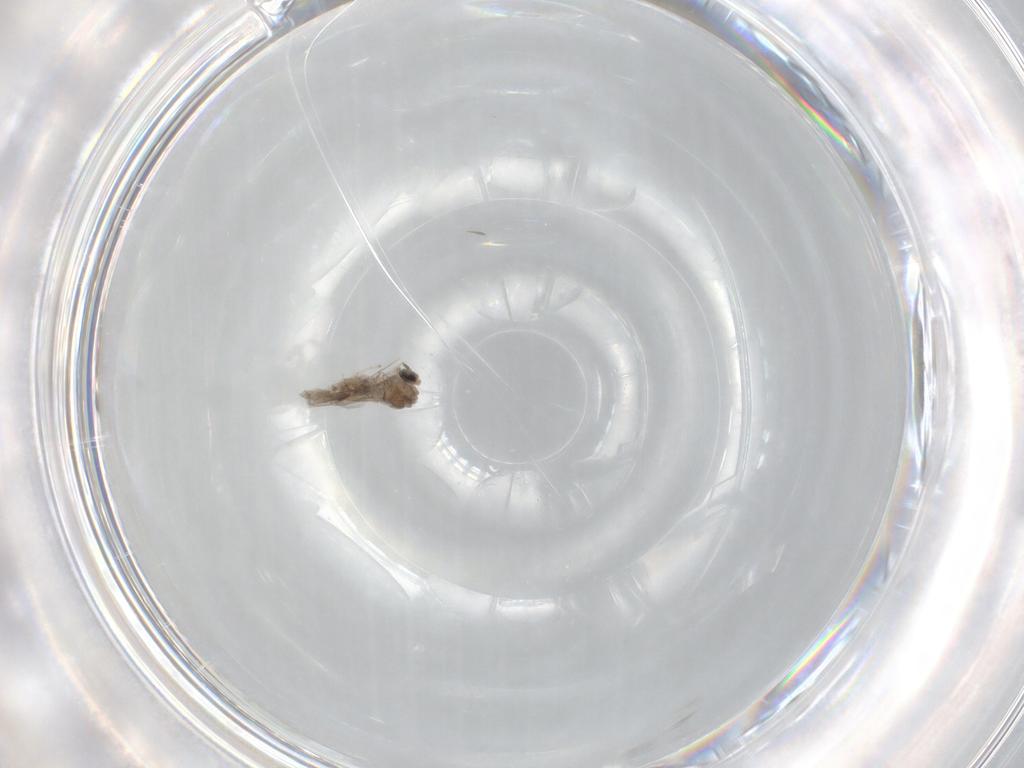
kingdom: Animalia
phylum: Arthropoda
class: Insecta
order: Diptera
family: Cecidomyiidae
